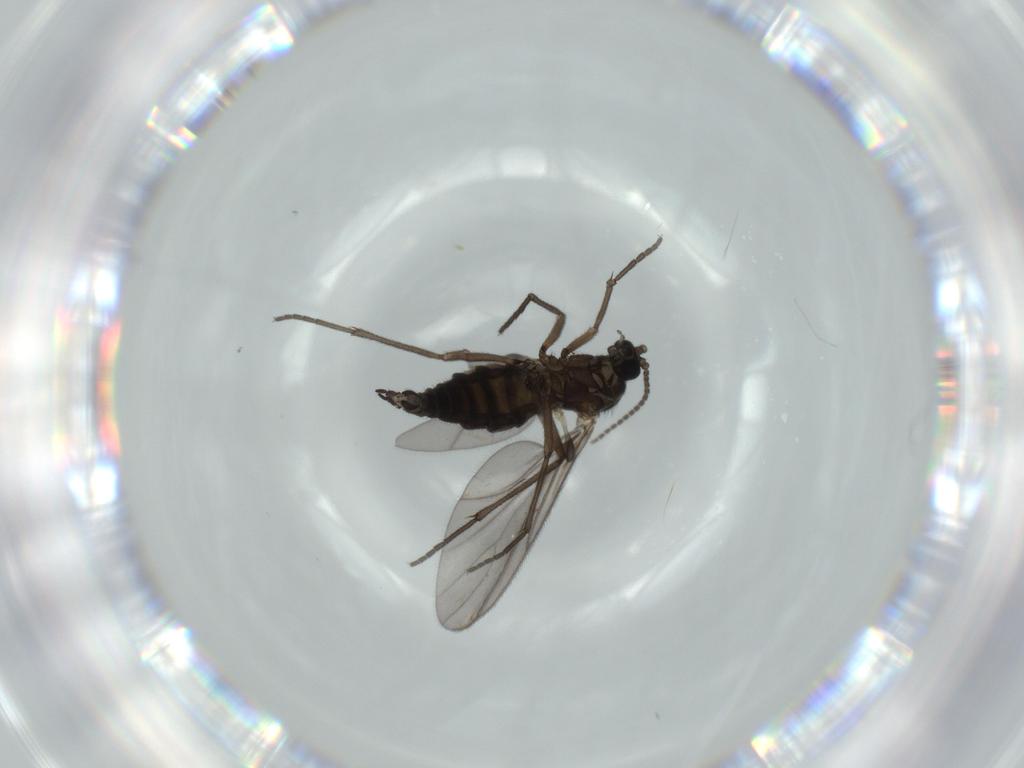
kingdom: Animalia
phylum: Arthropoda
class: Insecta
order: Diptera
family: Sciaridae
